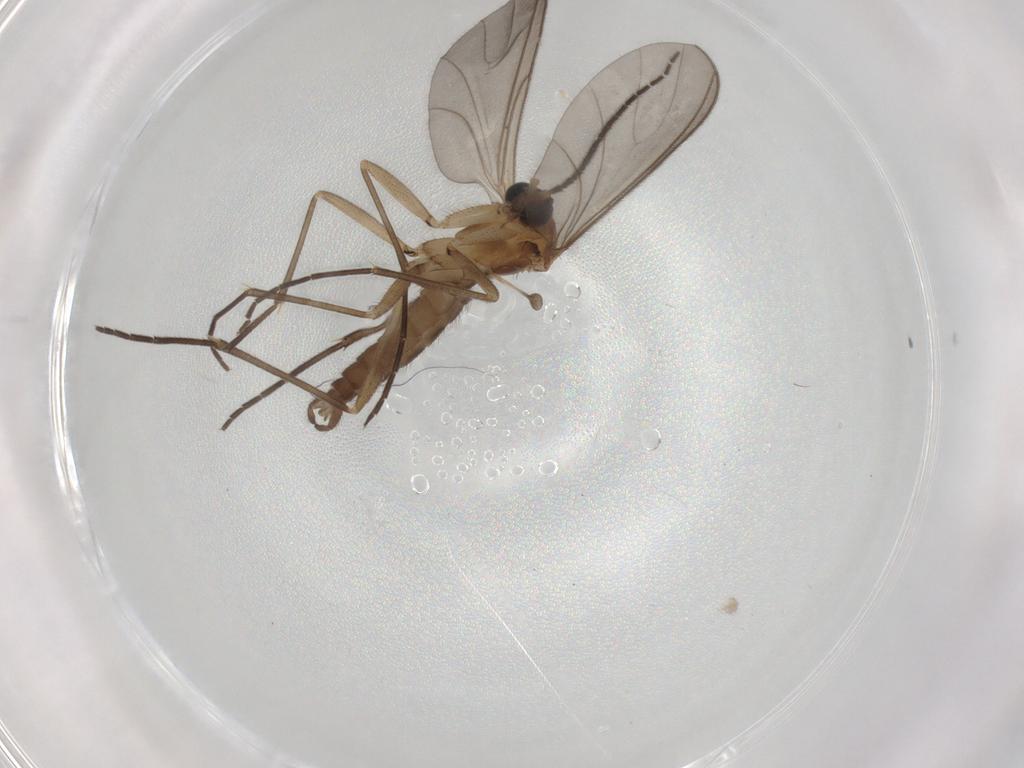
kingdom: Animalia
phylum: Arthropoda
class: Insecta
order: Diptera
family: Sciaridae
